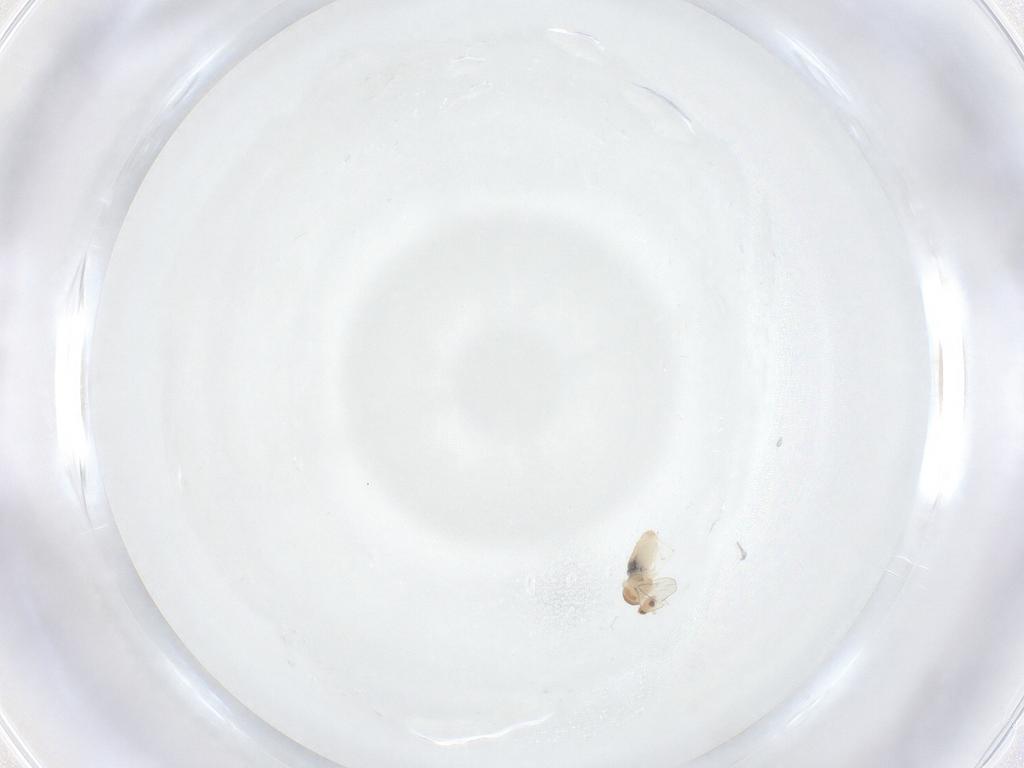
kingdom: Animalia
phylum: Arthropoda
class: Insecta
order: Diptera
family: Cecidomyiidae
